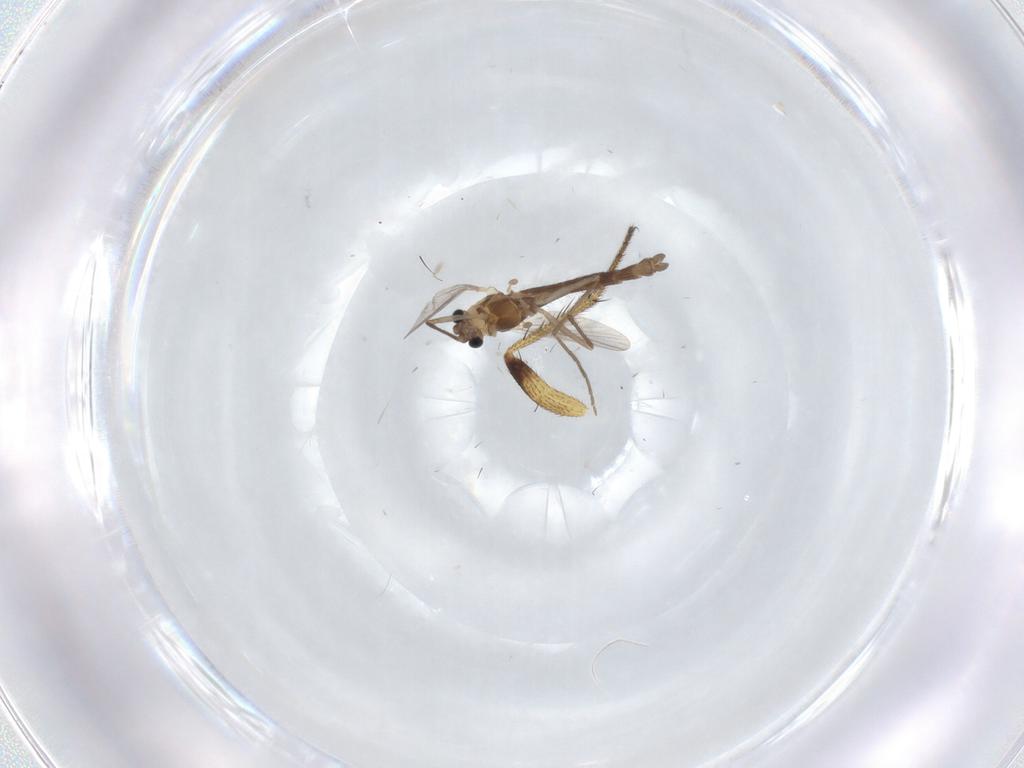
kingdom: Animalia
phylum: Arthropoda
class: Insecta
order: Diptera
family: Chironomidae
